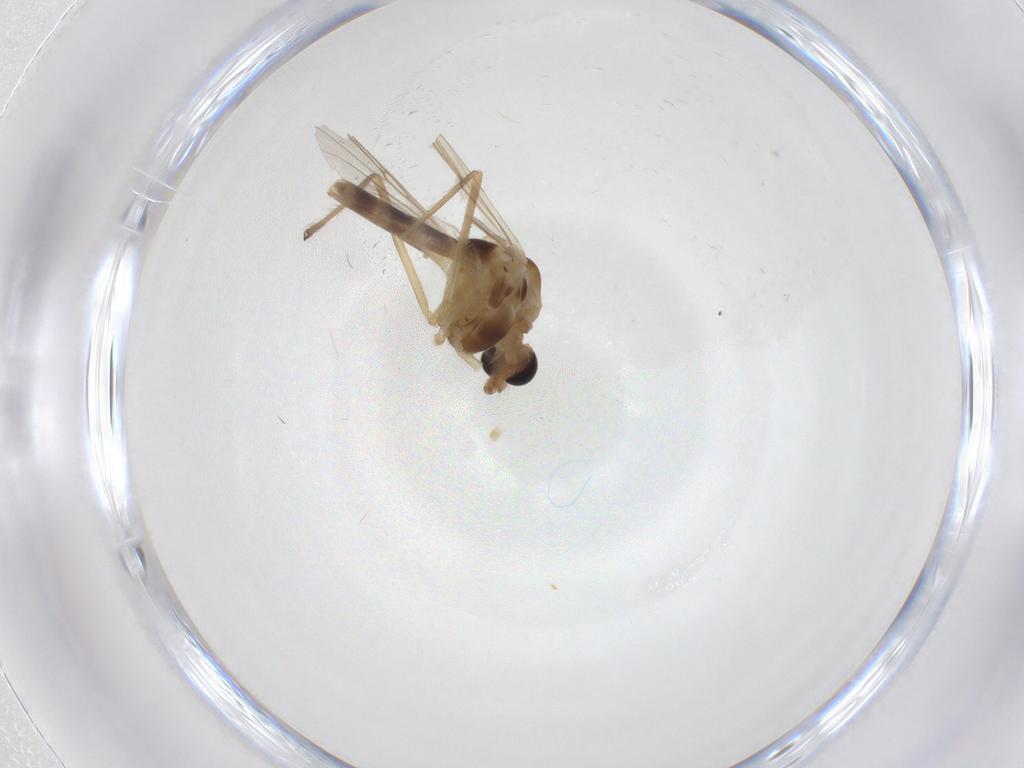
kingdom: Animalia
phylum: Arthropoda
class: Insecta
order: Diptera
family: Chironomidae
